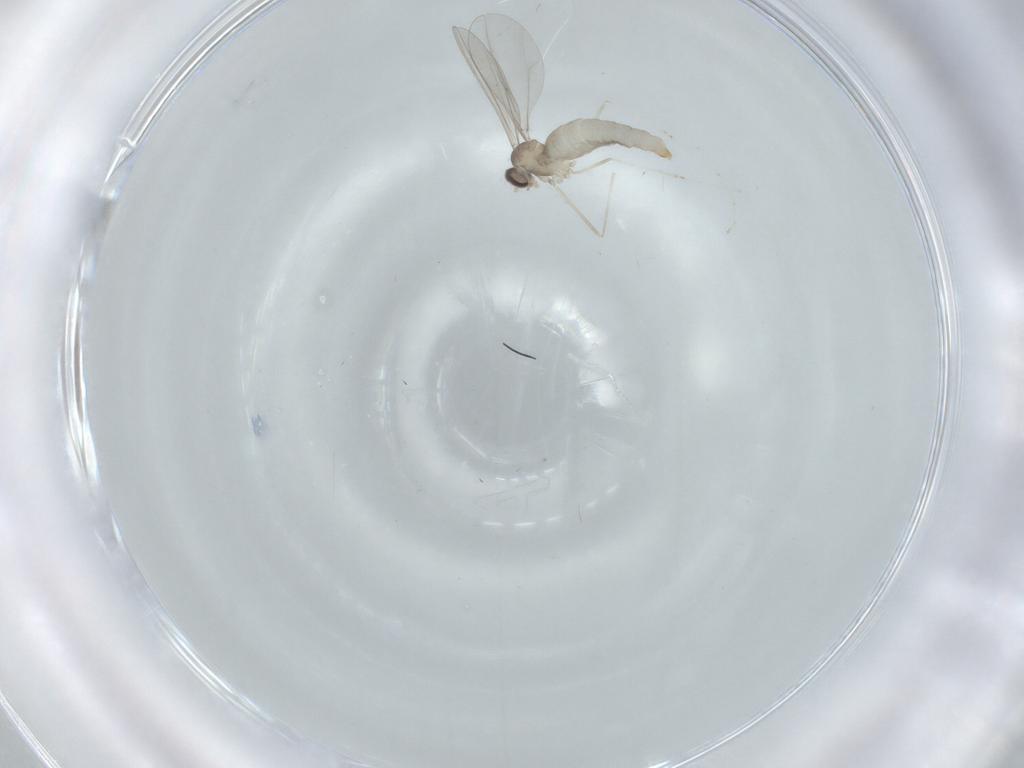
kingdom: Animalia
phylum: Arthropoda
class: Insecta
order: Diptera
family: Cecidomyiidae
